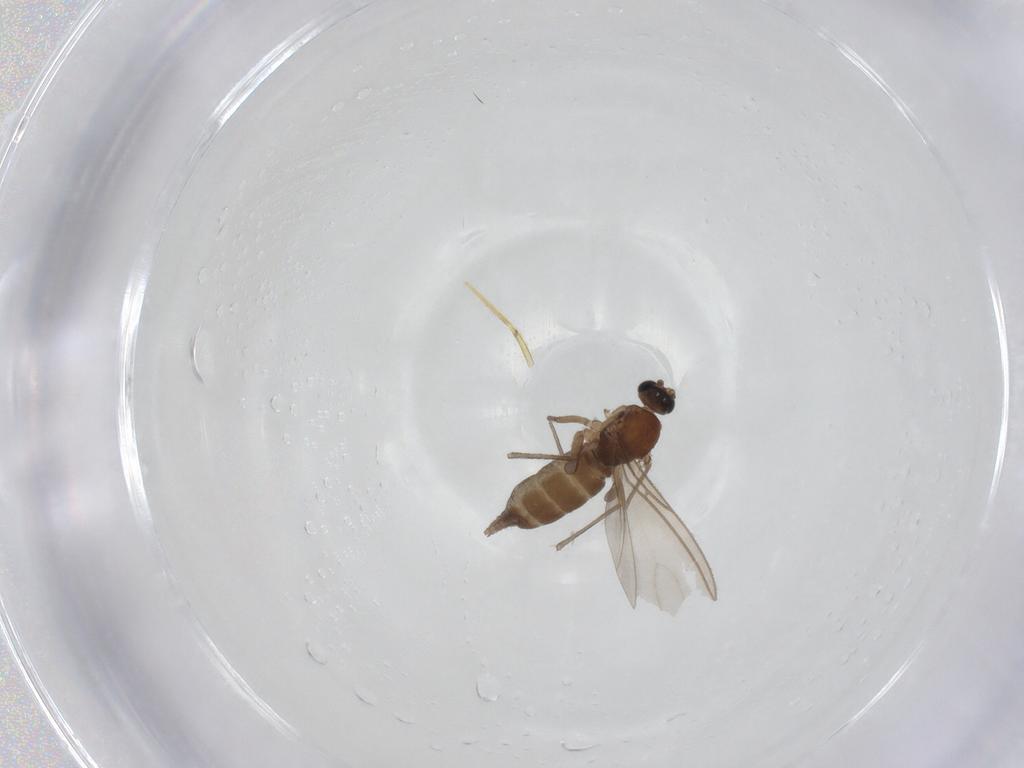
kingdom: Animalia
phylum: Arthropoda
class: Insecta
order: Diptera
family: Sciaridae
